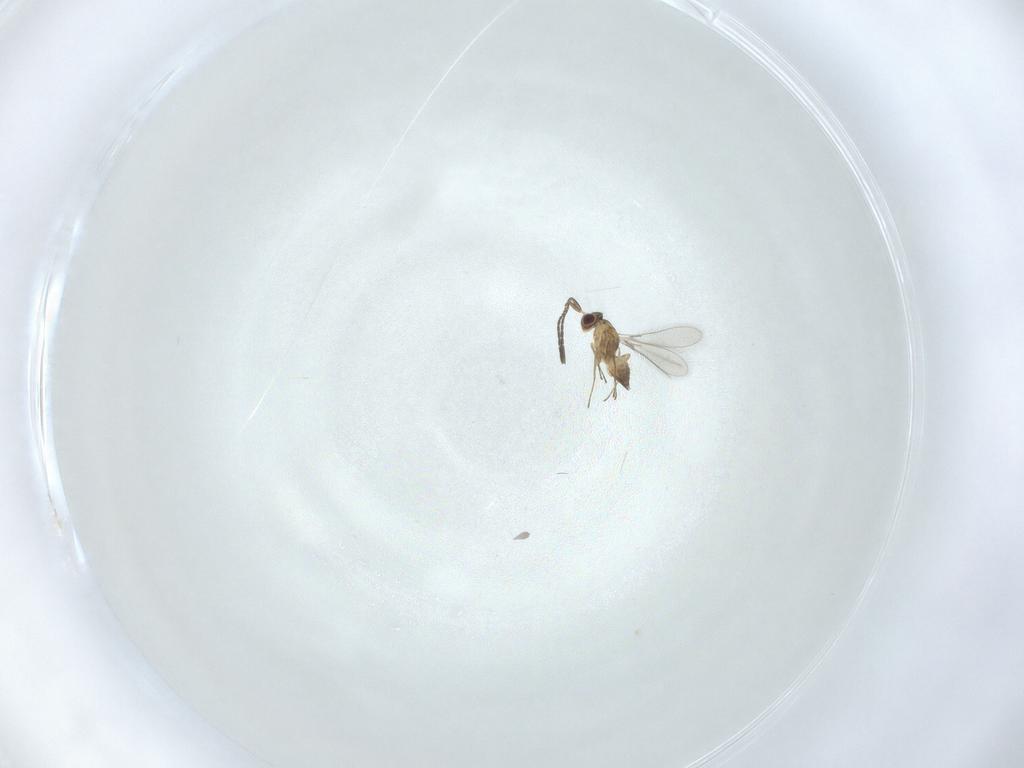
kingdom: Animalia
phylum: Arthropoda
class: Insecta
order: Hymenoptera
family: Mymaridae
